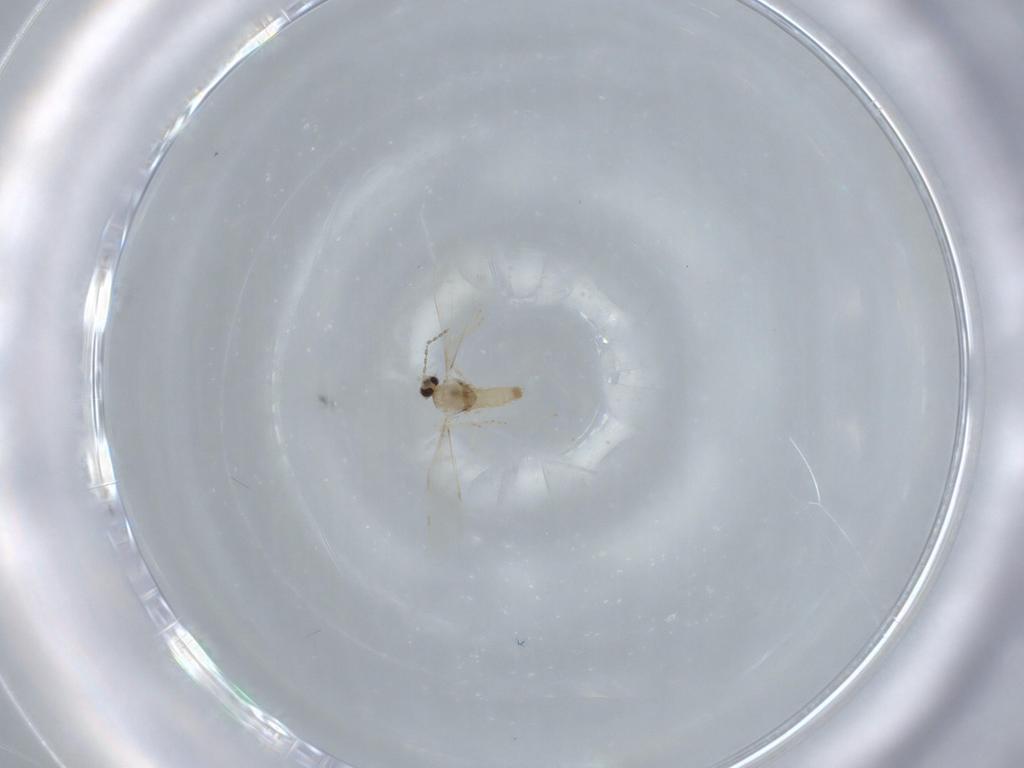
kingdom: Animalia
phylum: Arthropoda
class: Insecta
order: Diptera
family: Cecidomyiidae
